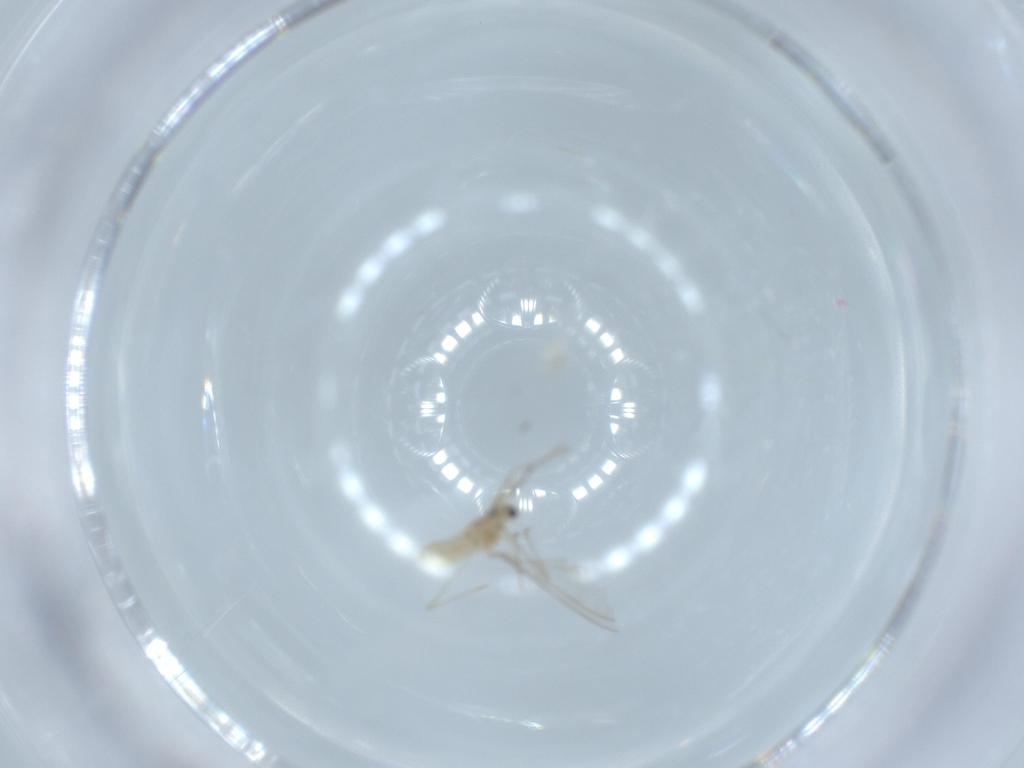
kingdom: Animalia
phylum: Arthropoda
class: Insecta
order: Diptera
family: Cecidomyiidae
